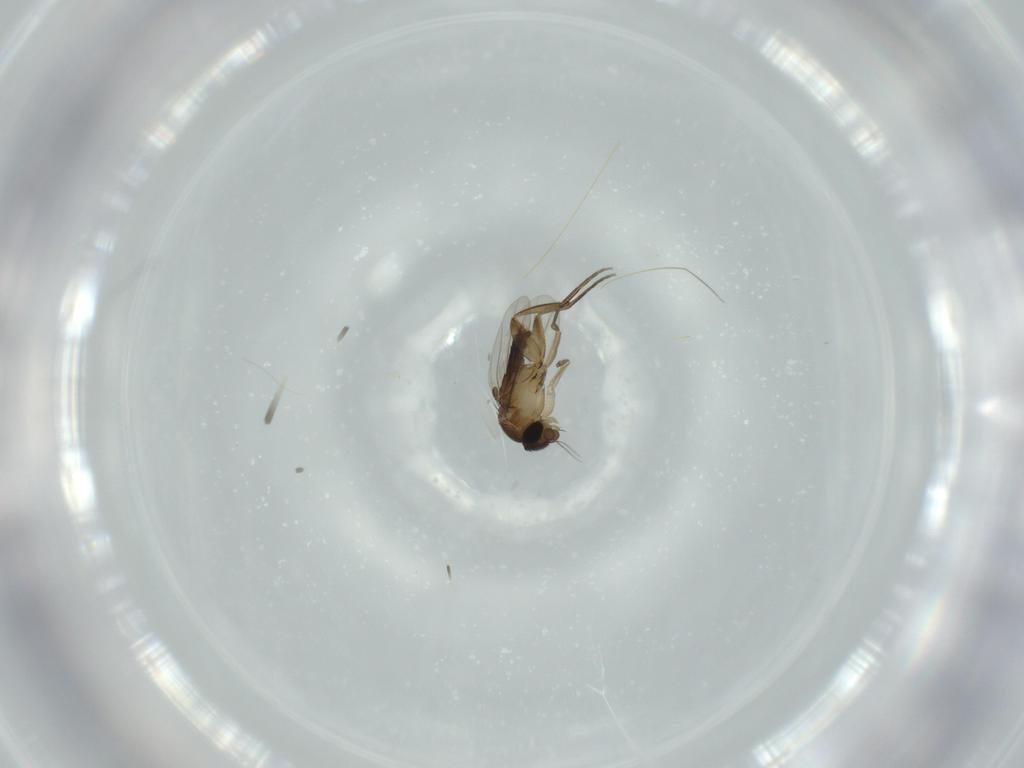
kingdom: Animalia
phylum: Arthropoda
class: Insecta
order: Diptera
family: Phoridae
